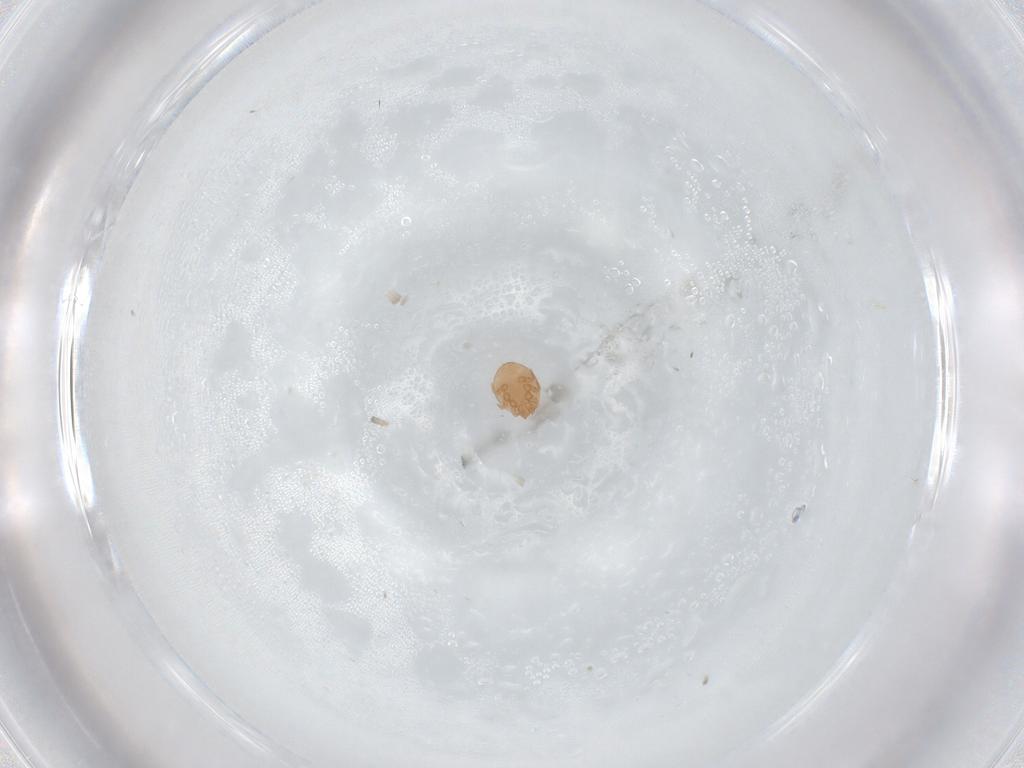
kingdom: Animalia
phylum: Arthropoda
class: Arachnida
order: Mesostigmata
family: Trematuridae
